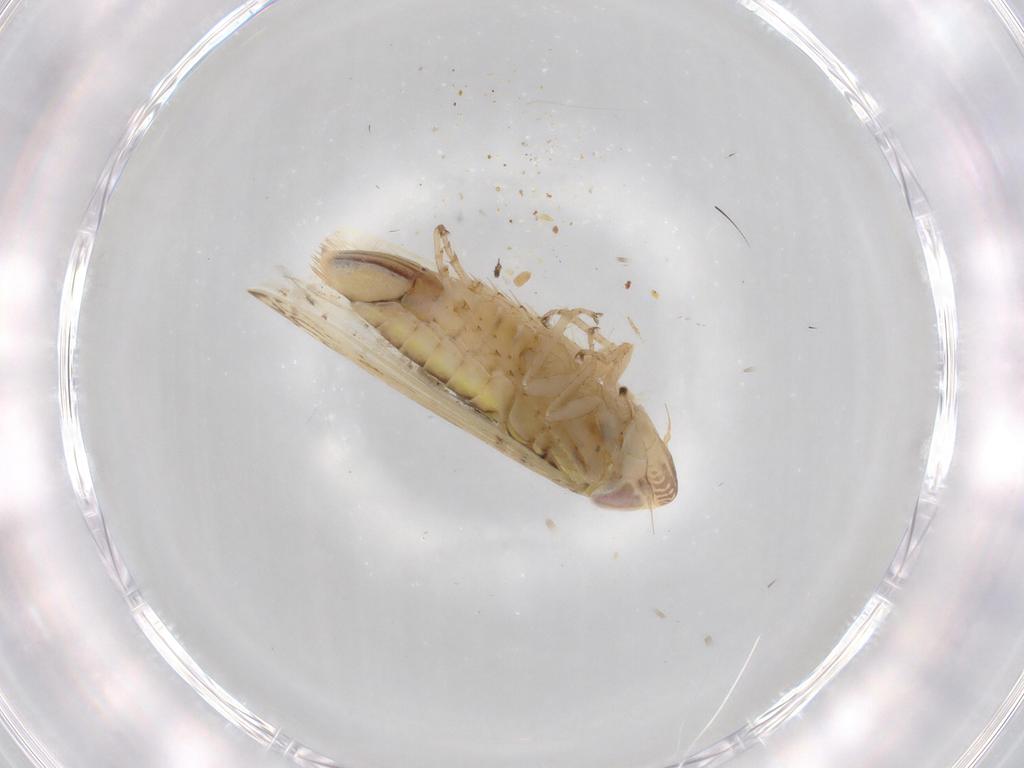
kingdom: Animalia
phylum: Arthropoda
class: Insecta
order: Hemiptera
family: Cicadellidae
